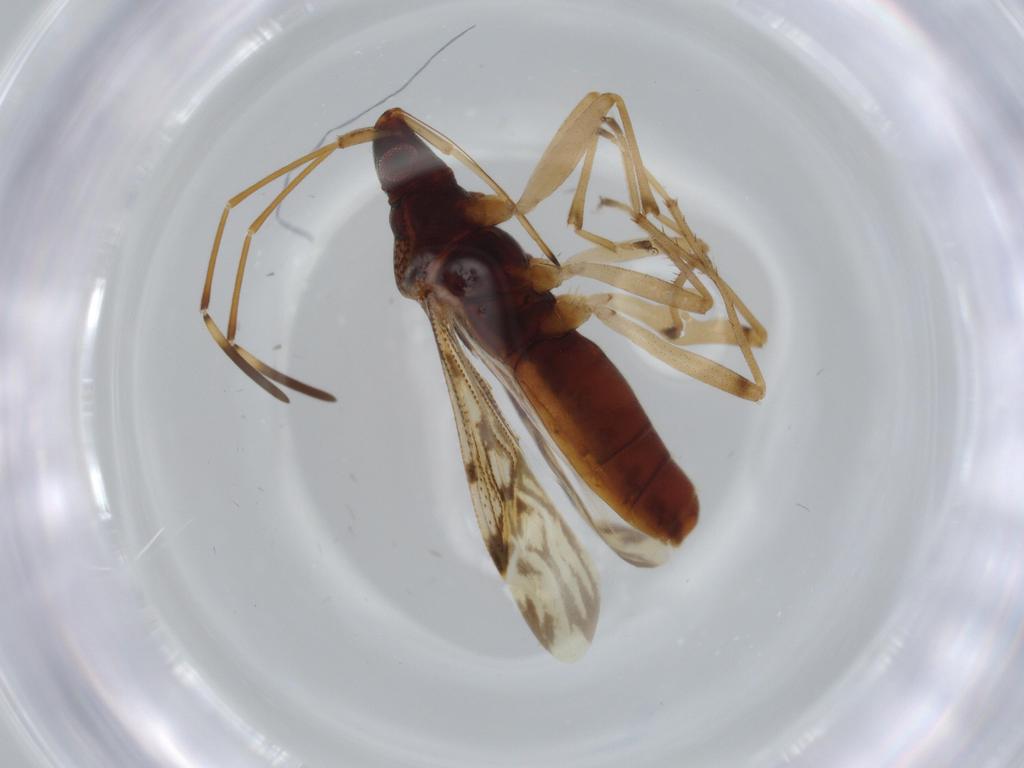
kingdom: Animalia
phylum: Arthropoda
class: Insecta
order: Hemiptera
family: Rhyparochromidae
